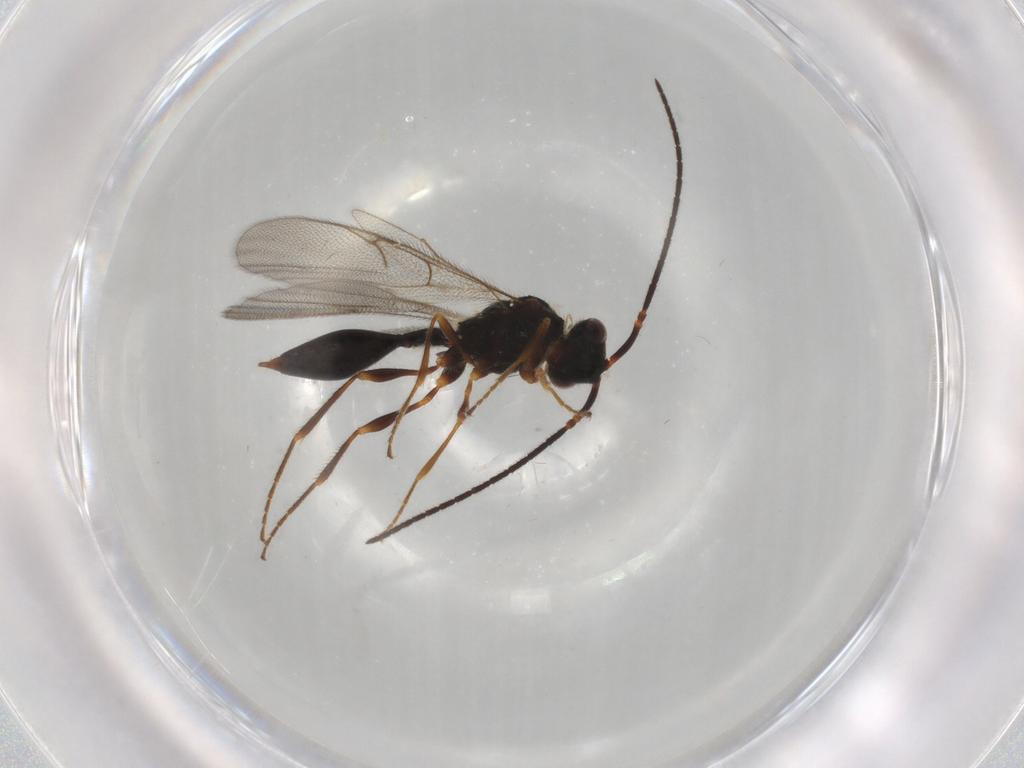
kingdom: Animalia
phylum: Arthropoda
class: Insecta
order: Hymenoptera
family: Diapriidae
